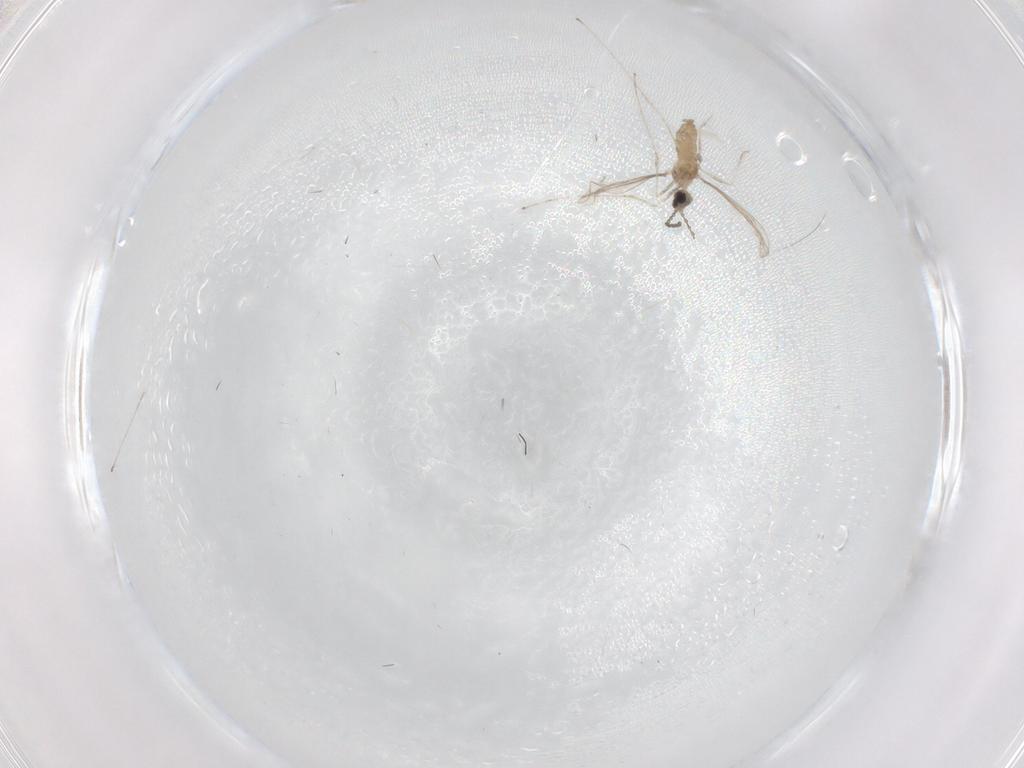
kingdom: Animalia
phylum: Arthropoda
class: Insecta
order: Diptera
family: Cecidomyiidae
